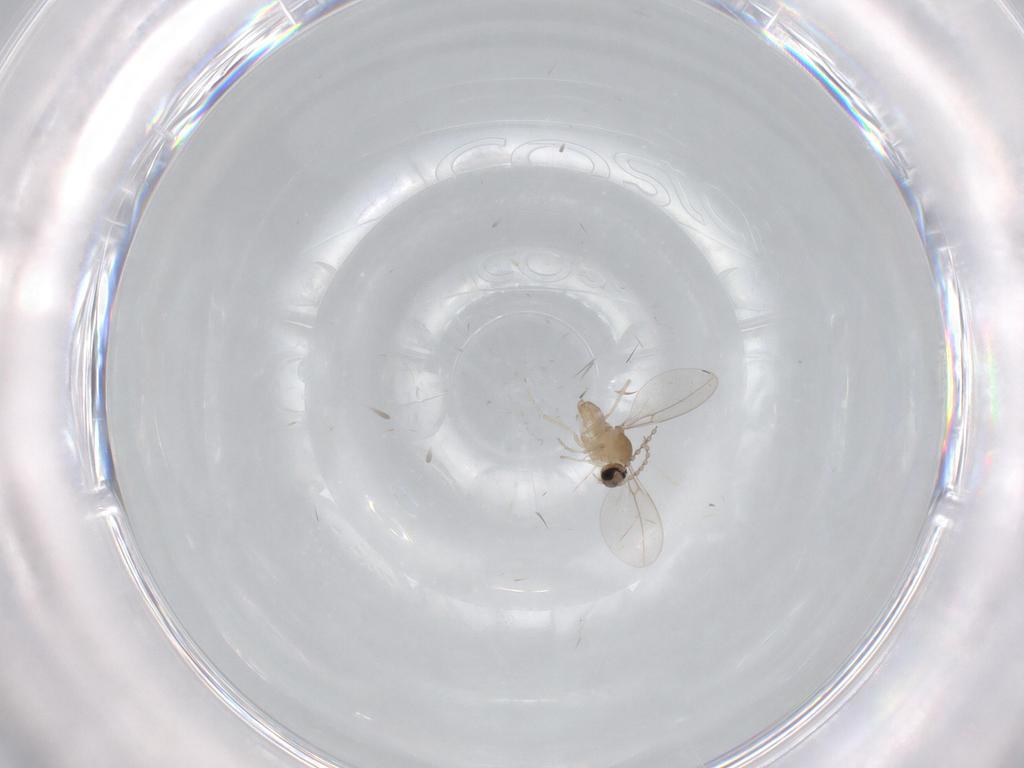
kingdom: Animalia
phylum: Arthropoda
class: Insecta
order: Diptera
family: Limoniidae
